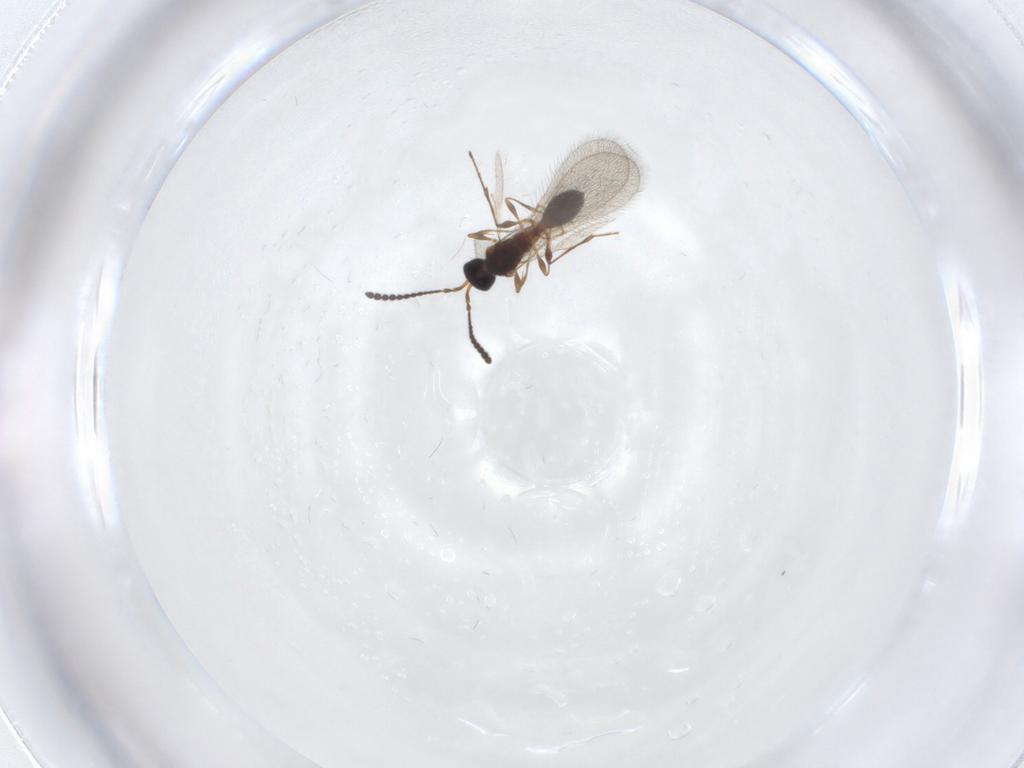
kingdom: Animalia
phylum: Arthropoda
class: Insecta
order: Hymenoptera
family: Diapriidae
